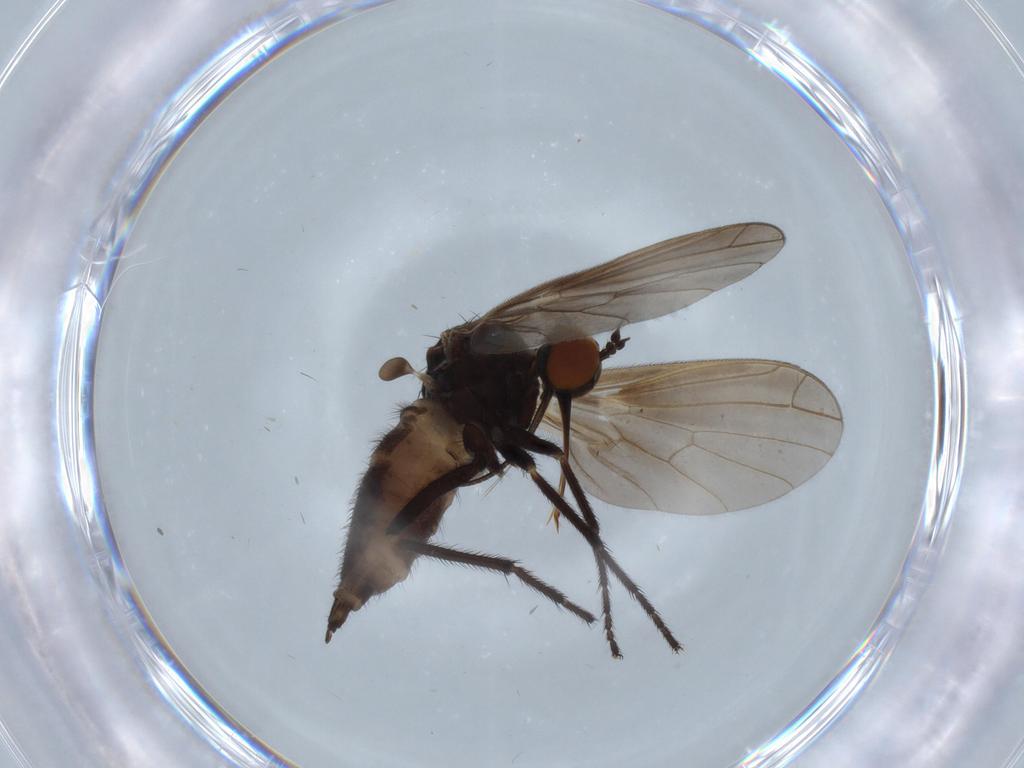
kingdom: Animalia
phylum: Arthropoda
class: Insecta
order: Diptera
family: Empididae
